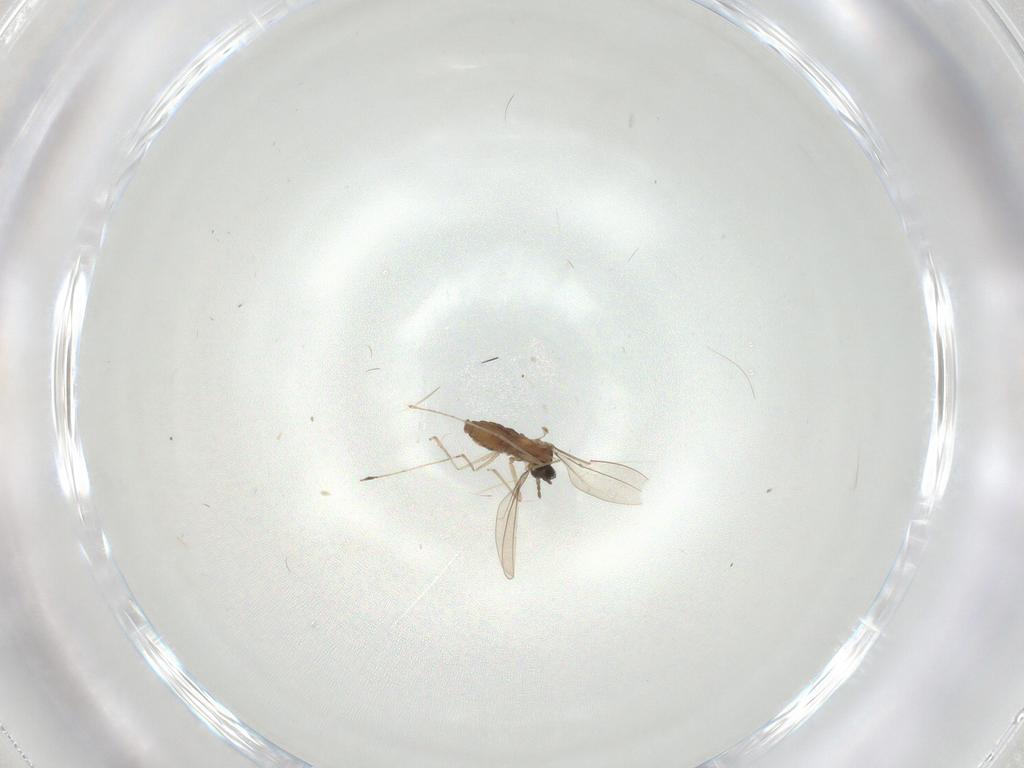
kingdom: Animalia
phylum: Arthropoda
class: Insecta
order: Diptera
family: Cecidomyiidae
